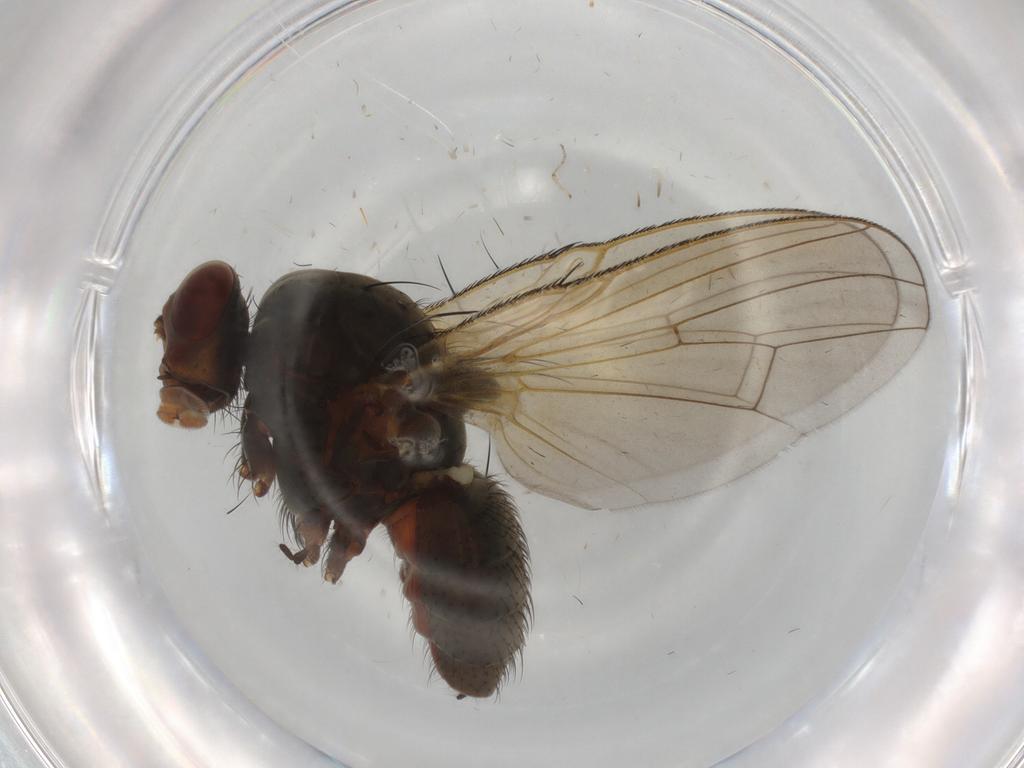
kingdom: Animalia
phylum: Arthropoda
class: Insecta
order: Diptera
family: Anthomyiidae
